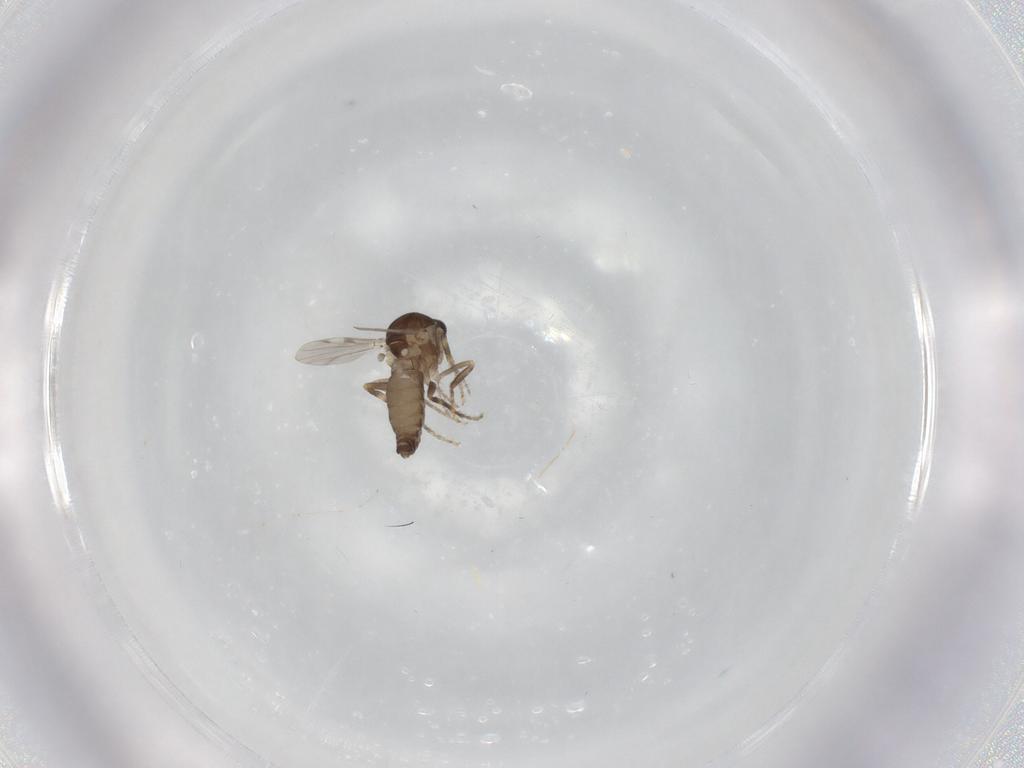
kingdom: Animalia
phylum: Arthropoda
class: Insecta
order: Diptera
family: Ceratopogonidae
